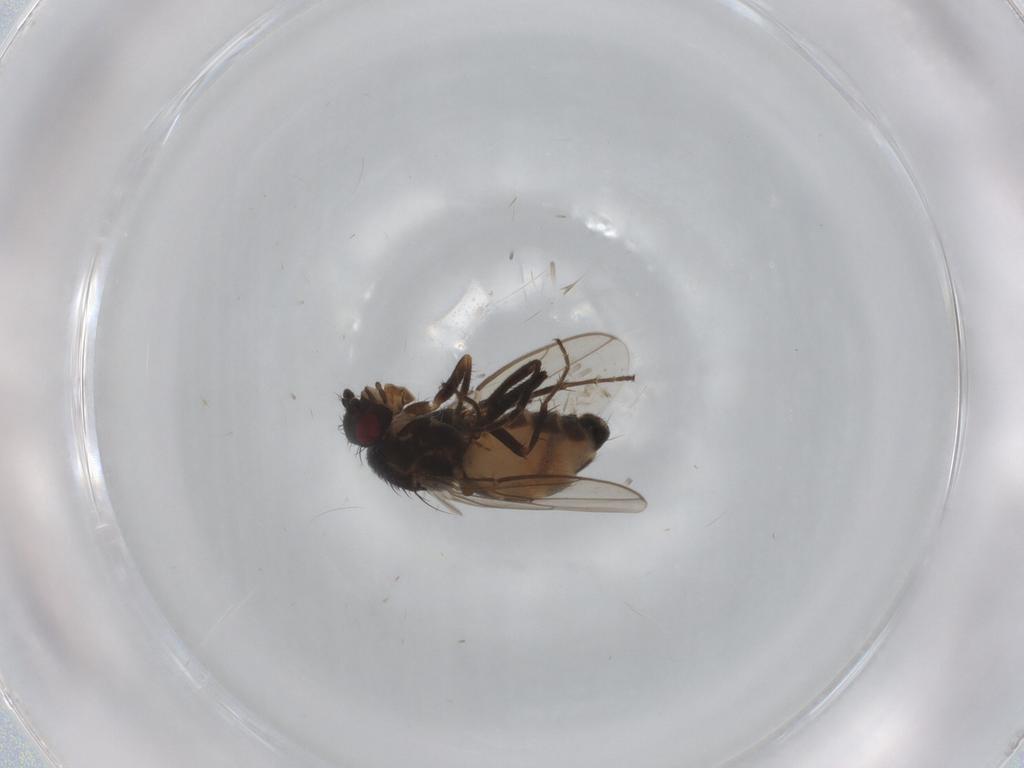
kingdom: Animalia
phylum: Arthropoda
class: Insecta
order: Diptera
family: Sphaeroceridae
